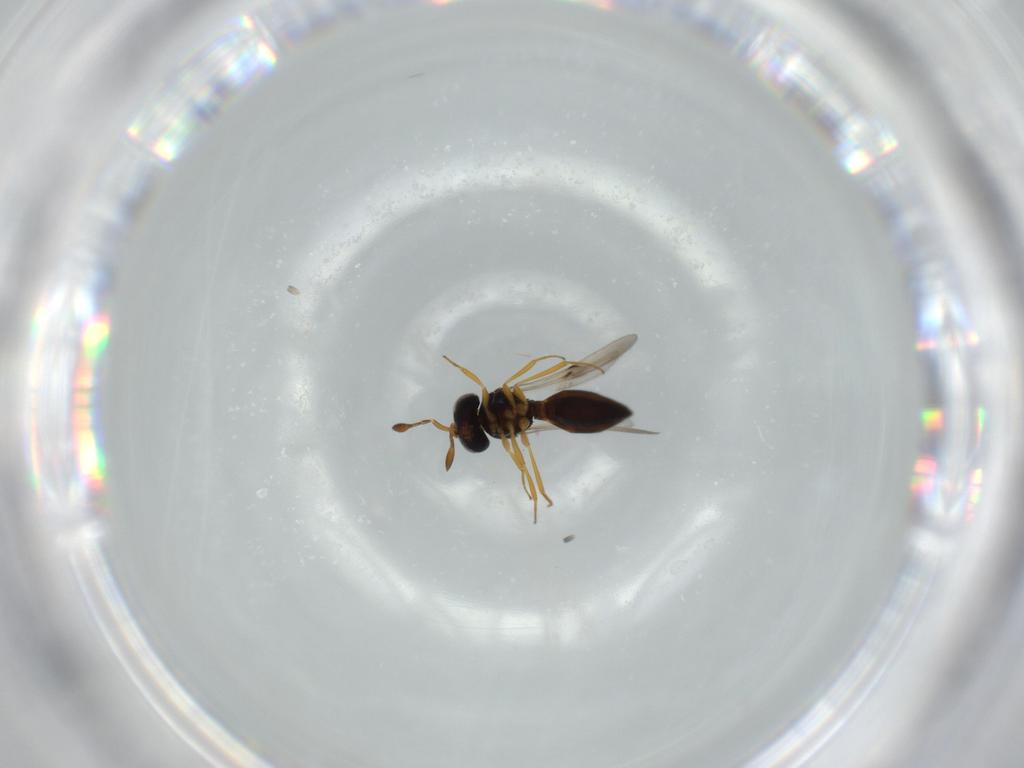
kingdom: Animalia
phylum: Arthropoda
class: Insecta
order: Hymenoptera
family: Scelionidae
